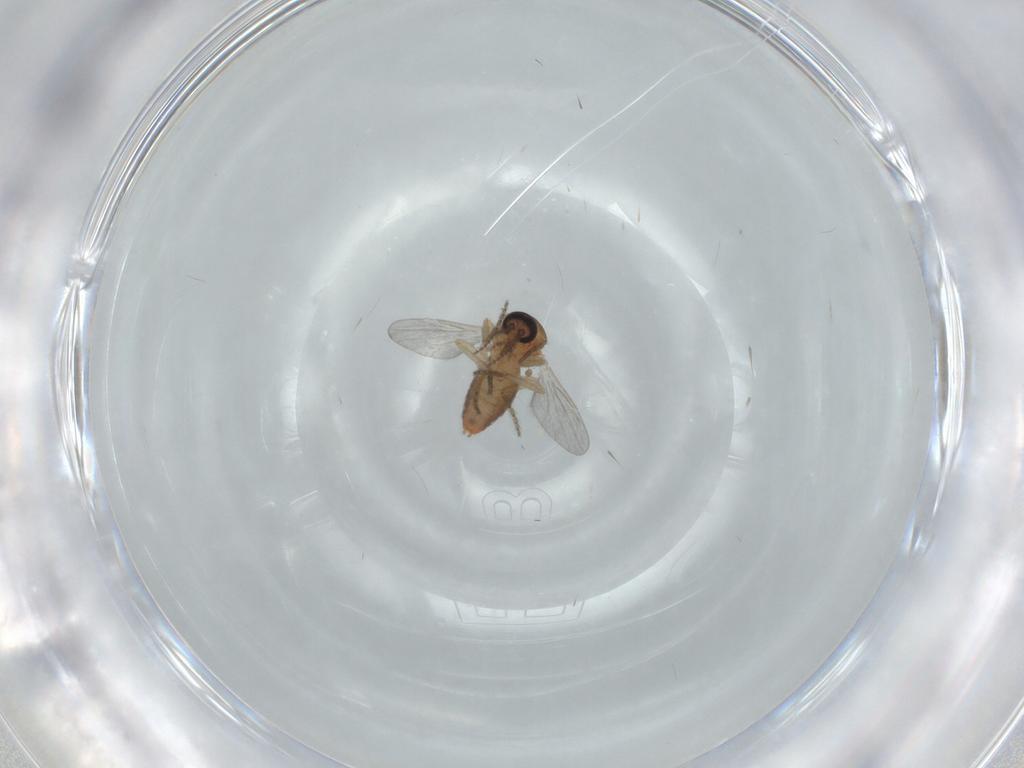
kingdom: Animalia
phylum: Arthropoda
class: Insecta
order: Diptera
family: Ceratopogonidae
